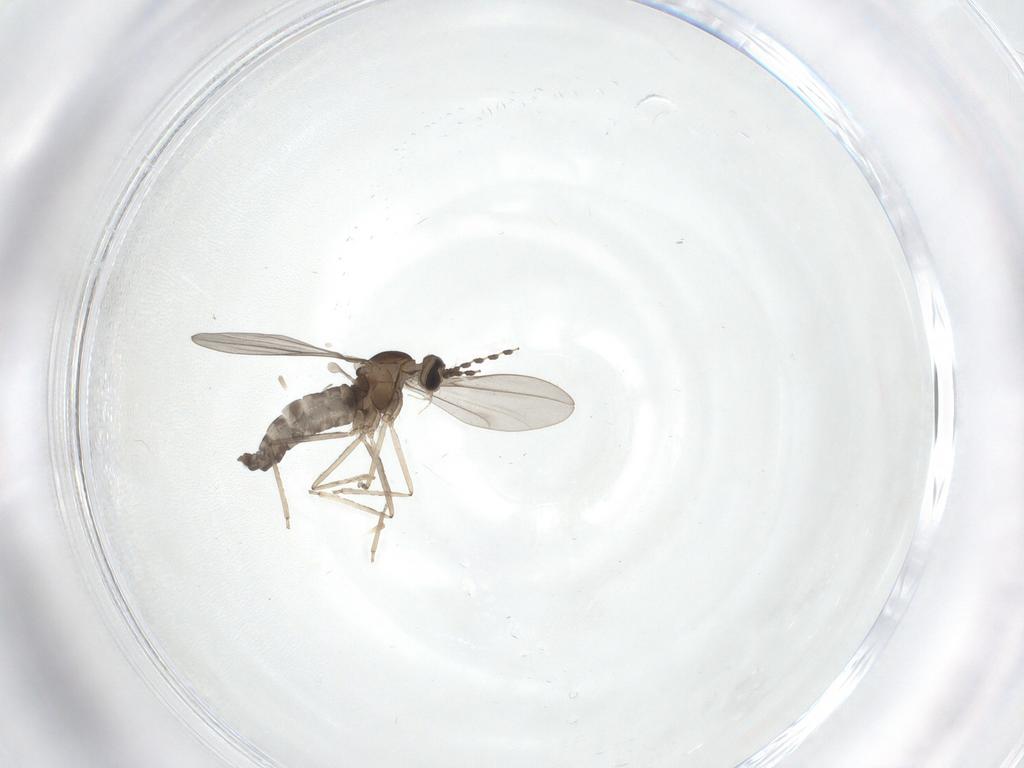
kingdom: Animalia
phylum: Arthropoda
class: Insecta
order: Diptera
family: Cecidomyiidae
